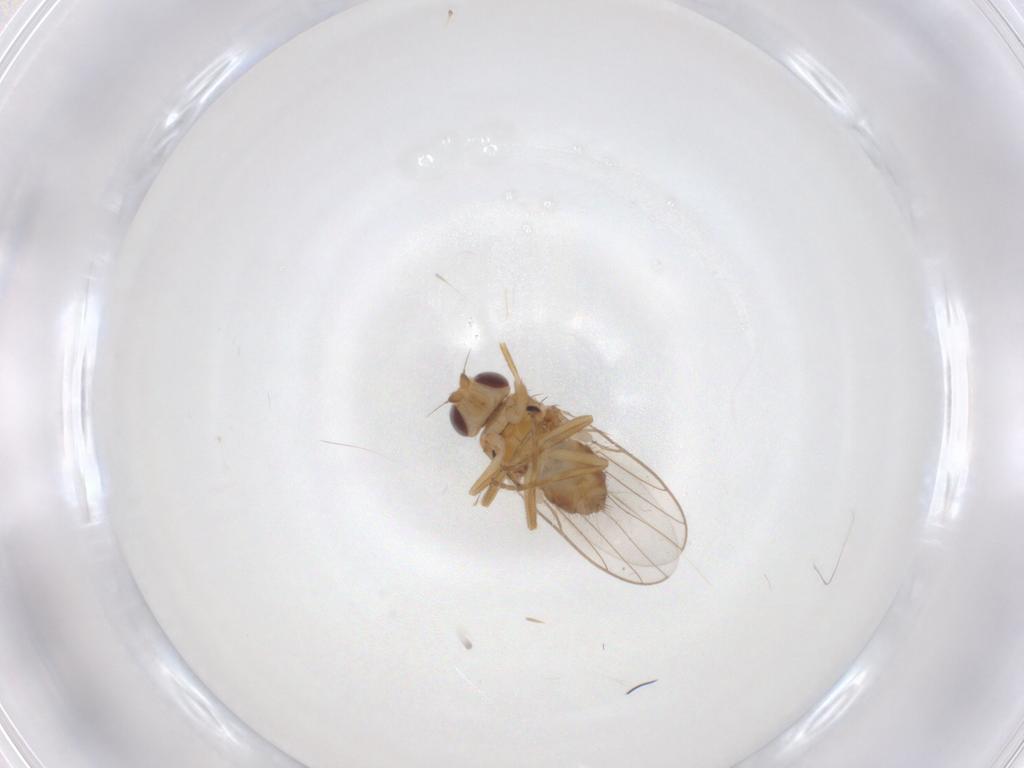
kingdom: Animalia
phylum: Arthropoda
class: Insecta
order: Diptera
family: Chloropidae
